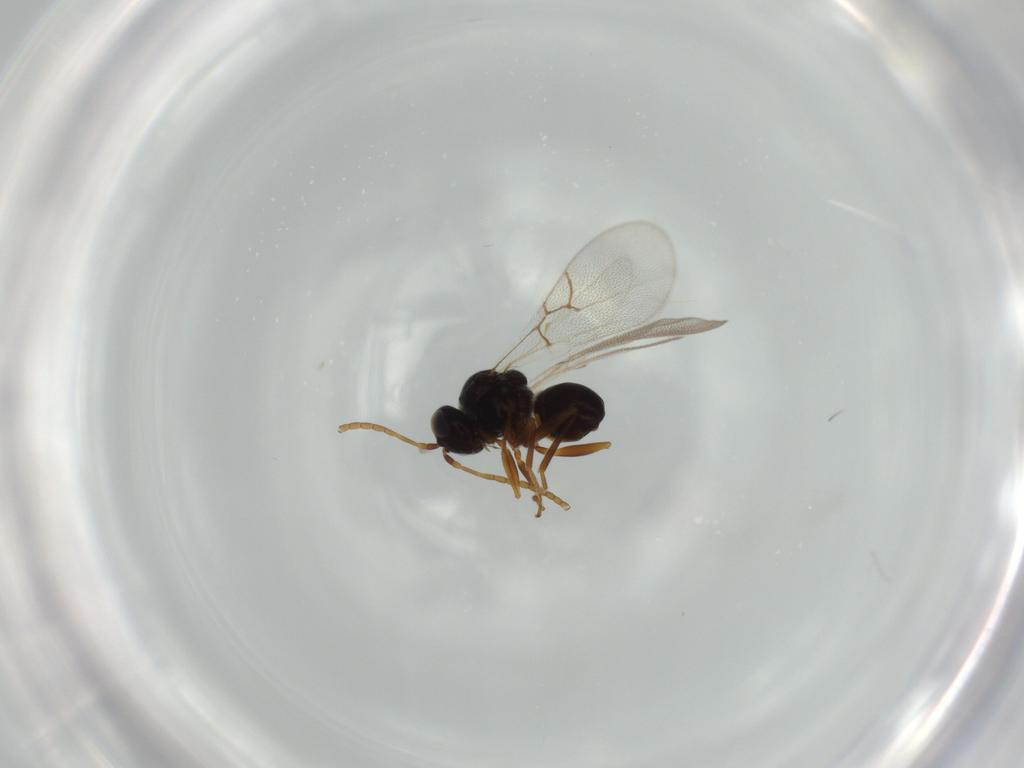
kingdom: Animalia
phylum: Arthropoda
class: Insecta
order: Hymenoptera
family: Figitidae
